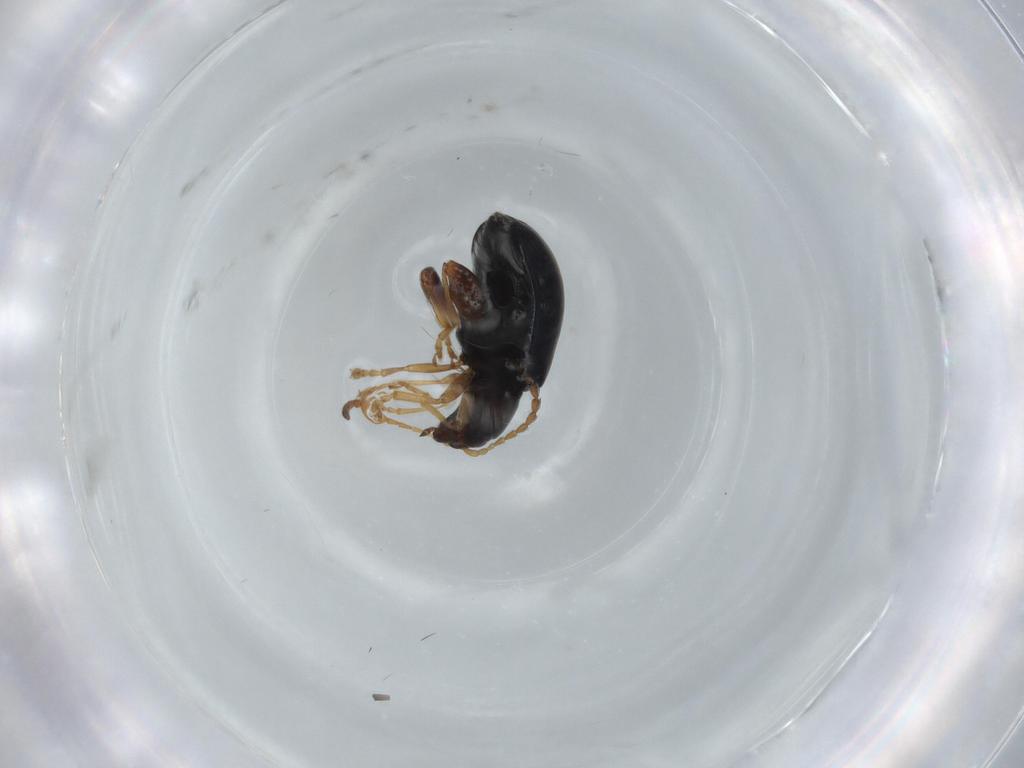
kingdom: Animalia
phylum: Arthropoda
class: Insecta
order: Coleoptera
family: Chrysomelidae
